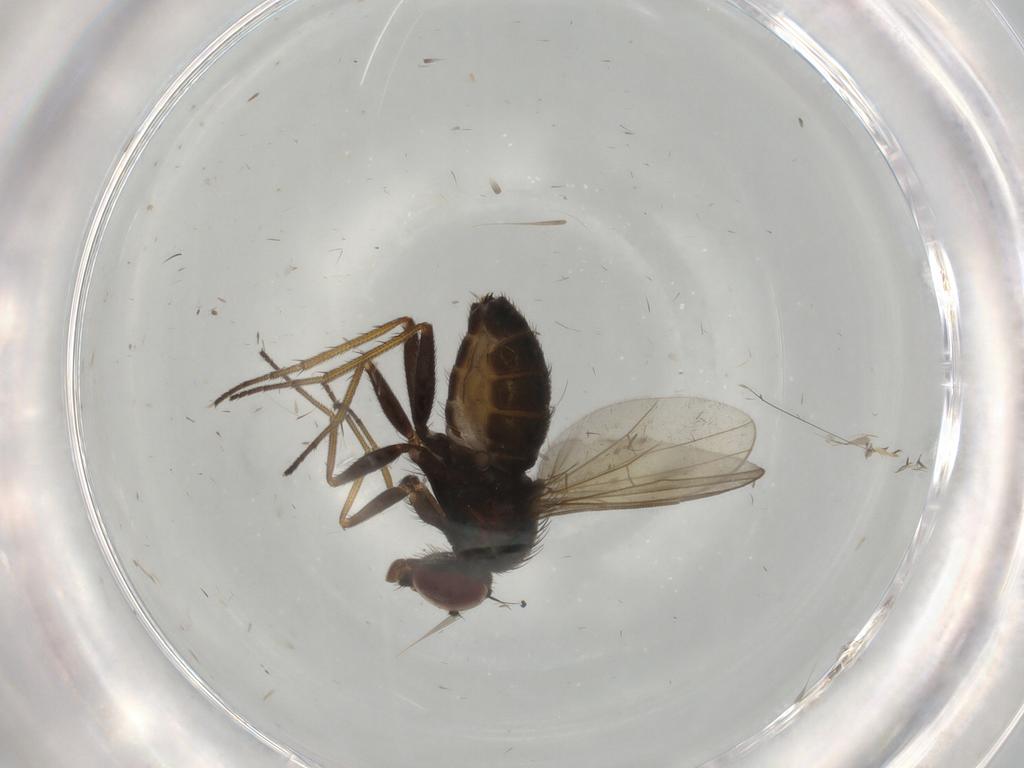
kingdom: Animalia
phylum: Arthropoda
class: Insecta
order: Diptera
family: Dolichopodidae
